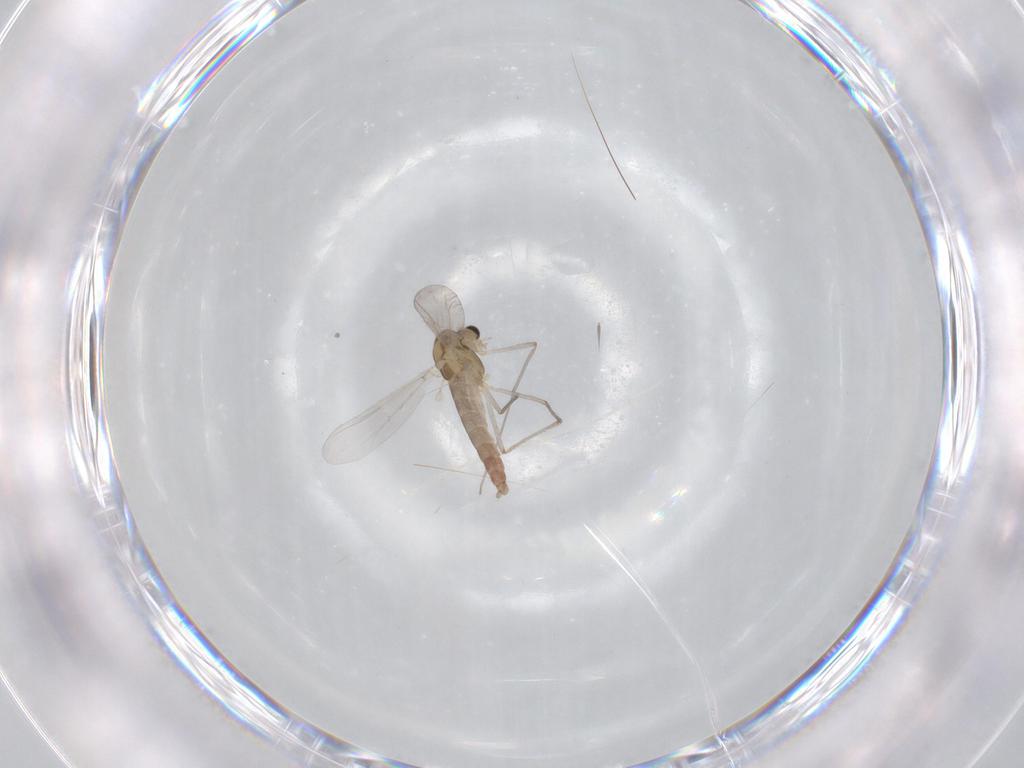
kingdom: Animalia
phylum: Arthropoda
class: Insecta
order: Diptera
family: Chironomidae
